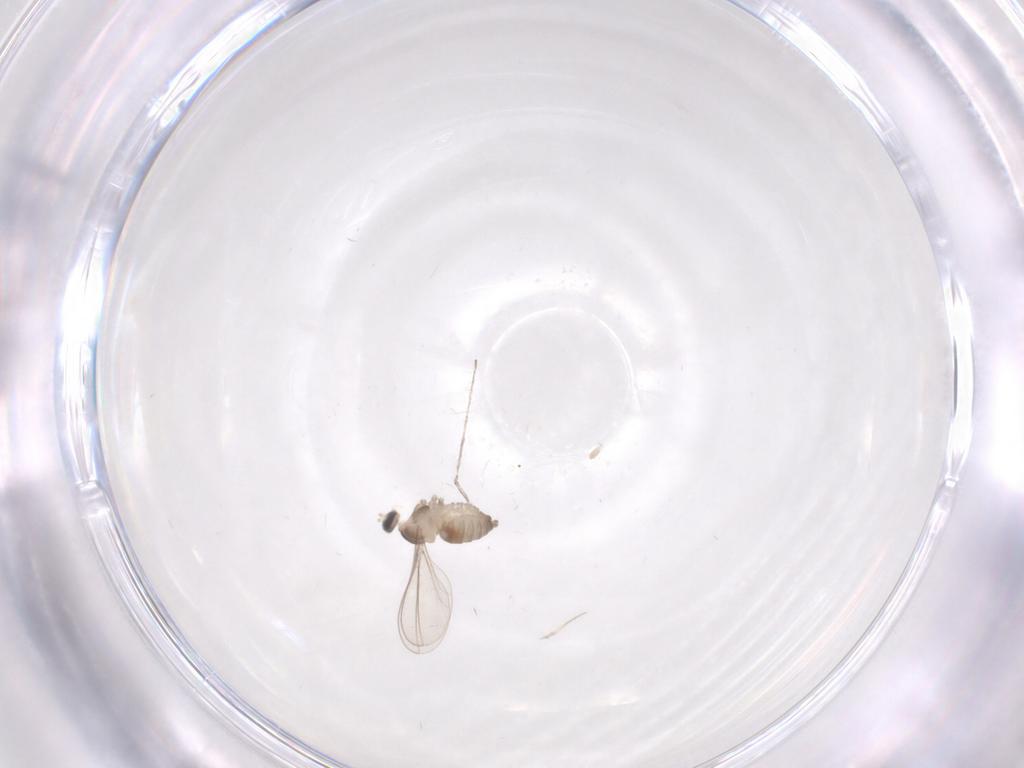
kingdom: Animalia
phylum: Arthropoda
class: Insecta
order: Diptera
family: Cecidomyiidae
